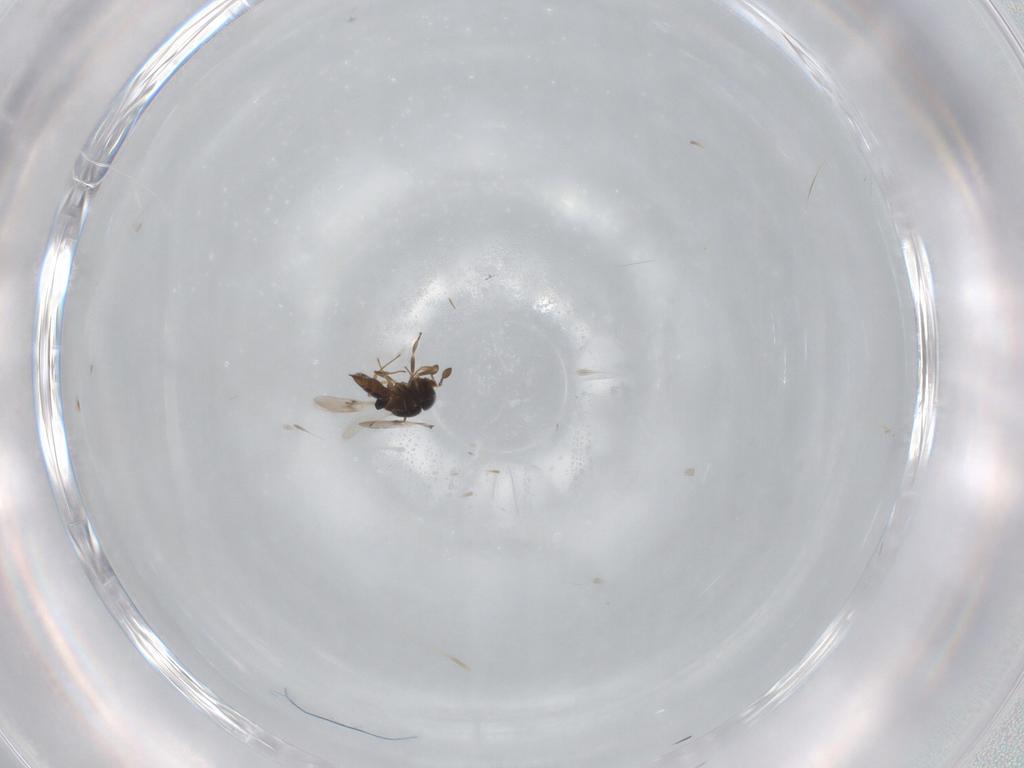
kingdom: Animalia
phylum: Arthropoda
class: Insecta
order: Hymenoptera
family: Scelionidae
